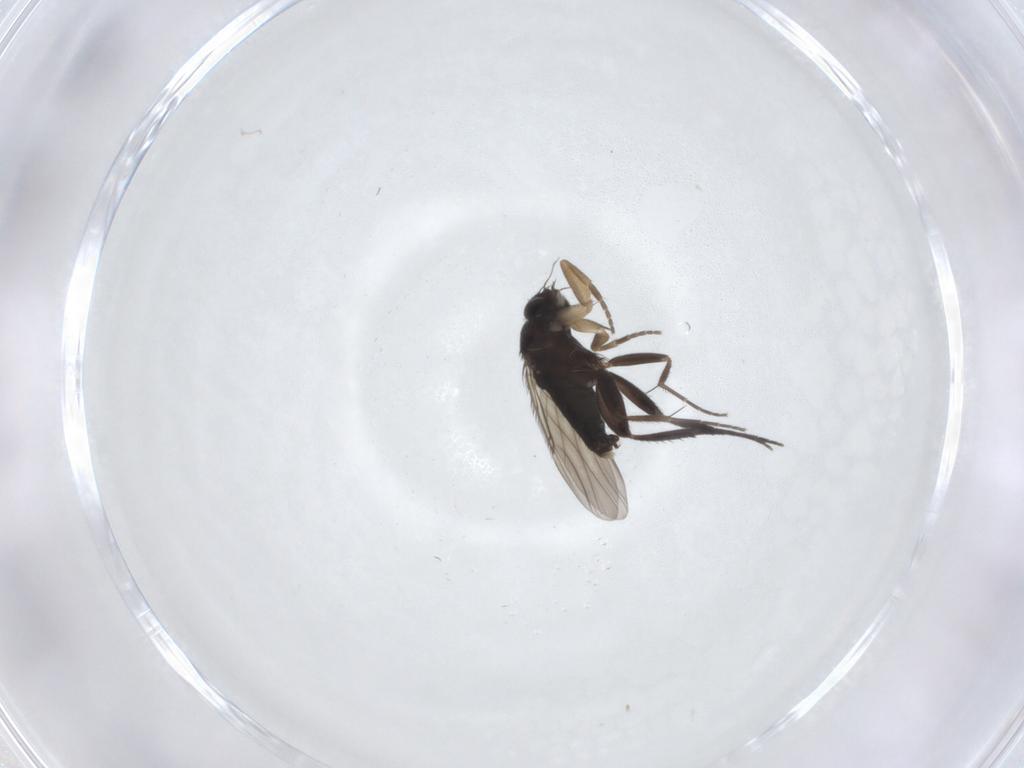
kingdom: Animalia
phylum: Arthropoda
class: Insecta
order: Diptera
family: Phoridae
